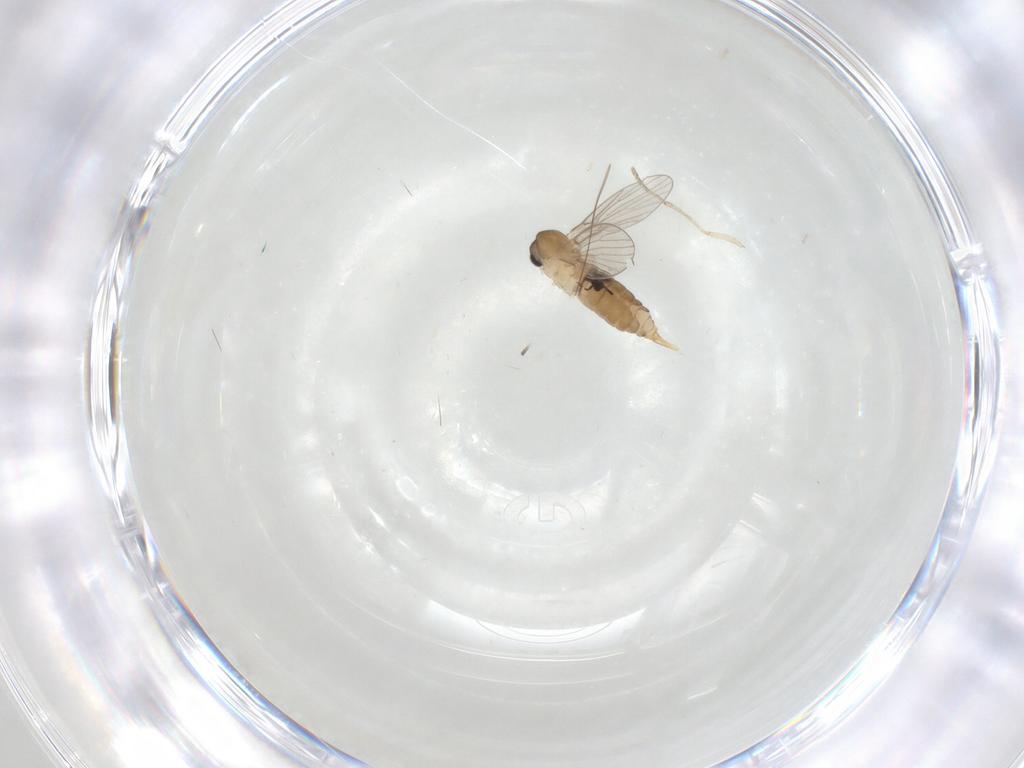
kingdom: Animalia
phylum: Arthropoda
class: Insecta
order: Diptera
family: Psychodidae
